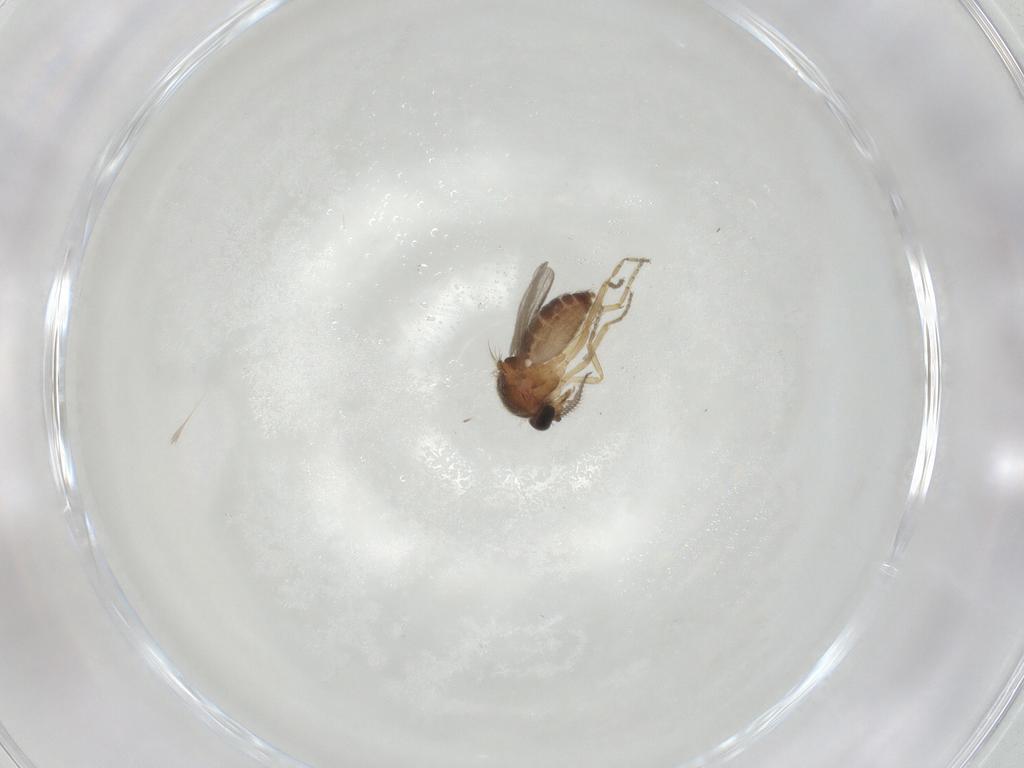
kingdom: Animalia
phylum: Arthropoda
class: Insecta
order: Diptera
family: Ceratopogonidae
